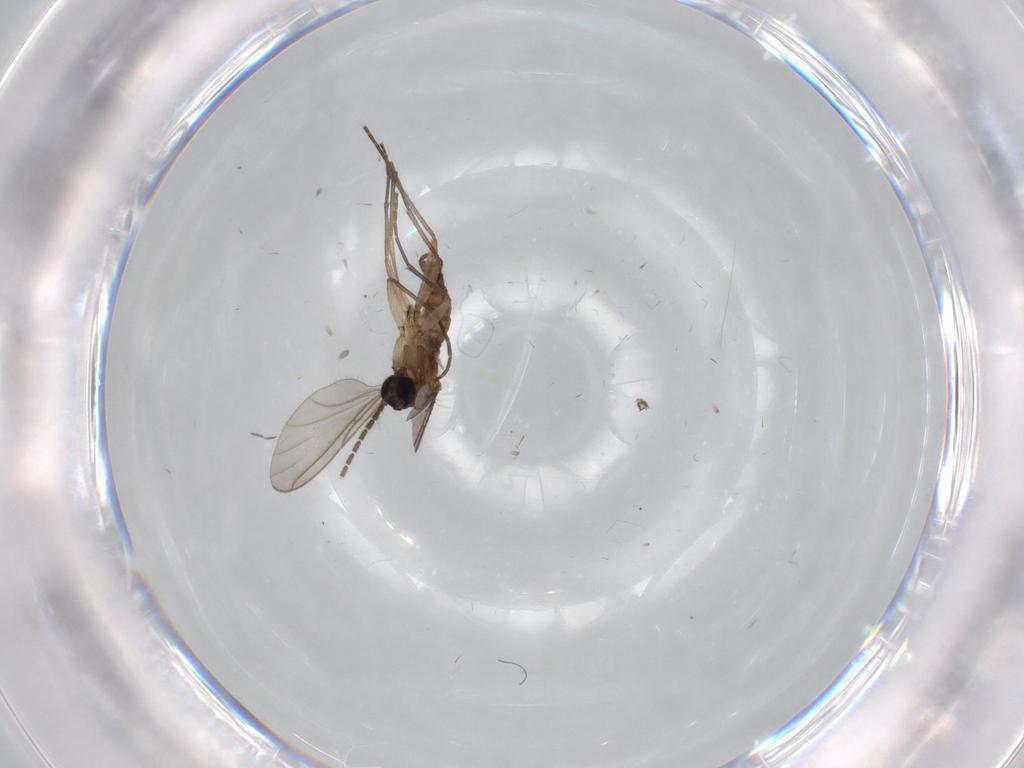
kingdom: Animalia
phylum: Arthropoda
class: Insecta
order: Diptera
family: Sciaridae
